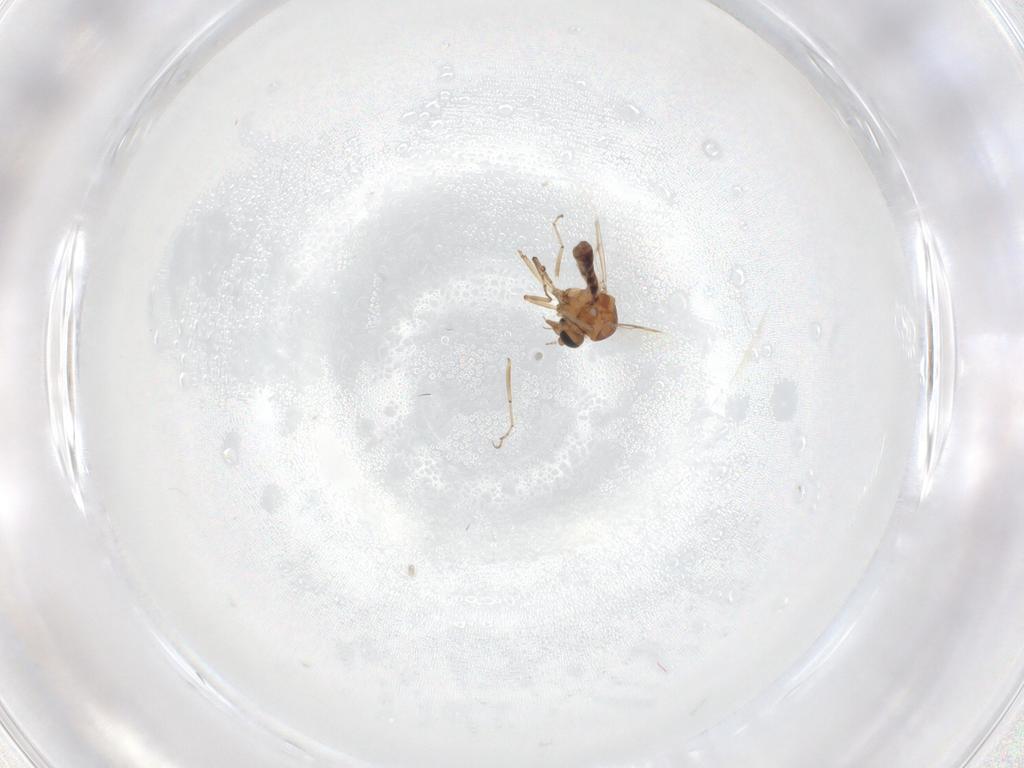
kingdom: Animalia
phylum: Arthropoda
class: Insecta
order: Diptera
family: Ceratopogonidae
